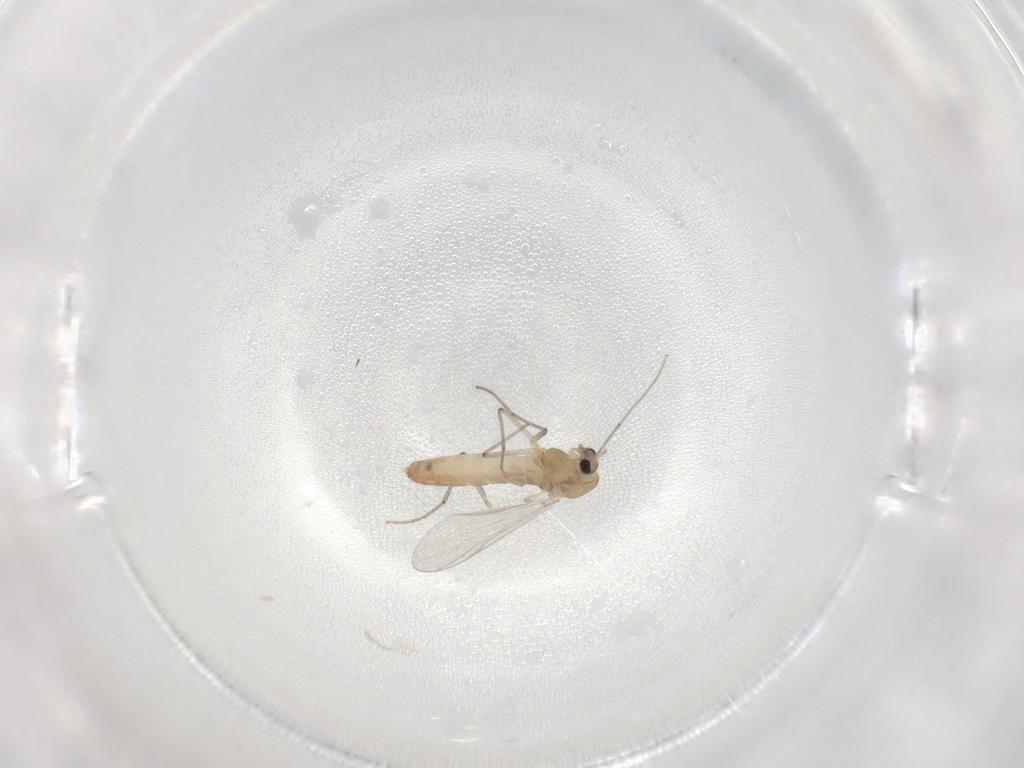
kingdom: Animalia
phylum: Arthropoda
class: Insecta
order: Diptera
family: Chironomidae
